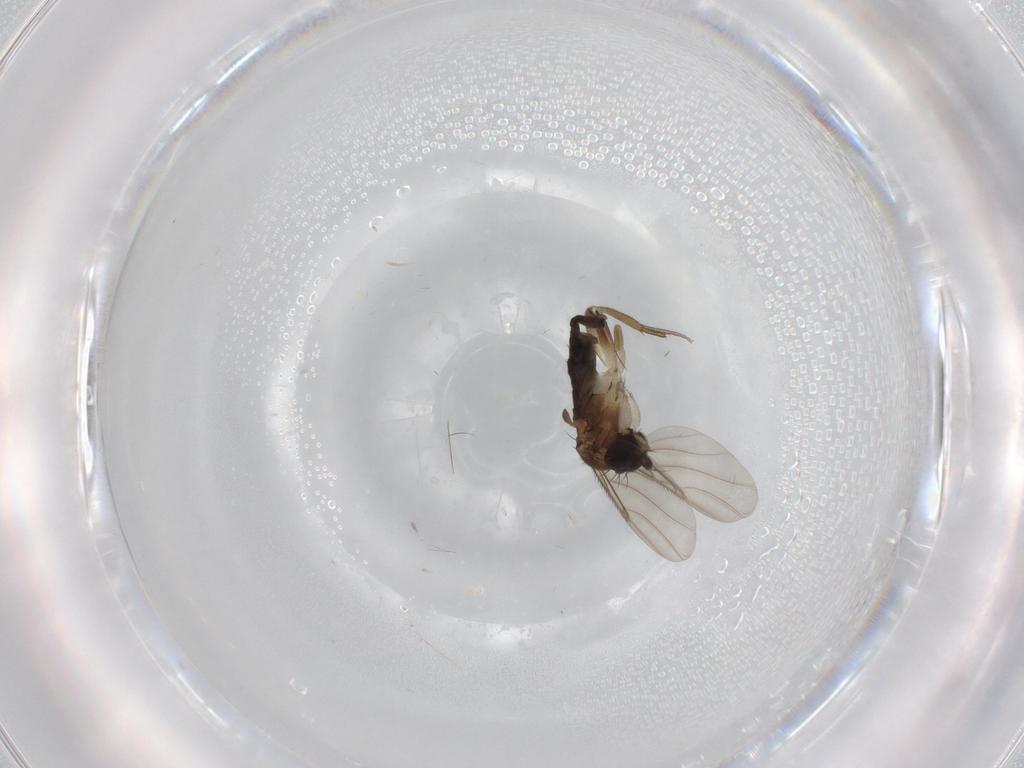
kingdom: Animalia
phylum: Arthropoda
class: Insecta
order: Diptera
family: Phoridae
